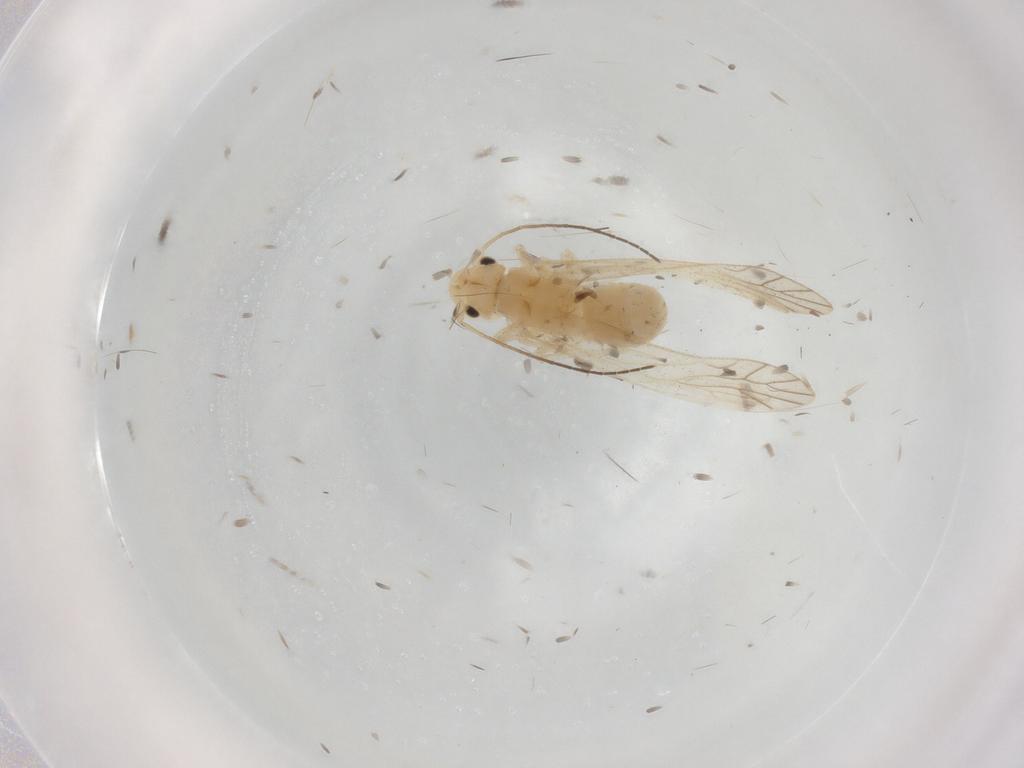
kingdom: Animalia
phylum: Arthropoda
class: Insecta
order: Psocodea
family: Caeciliusidae
